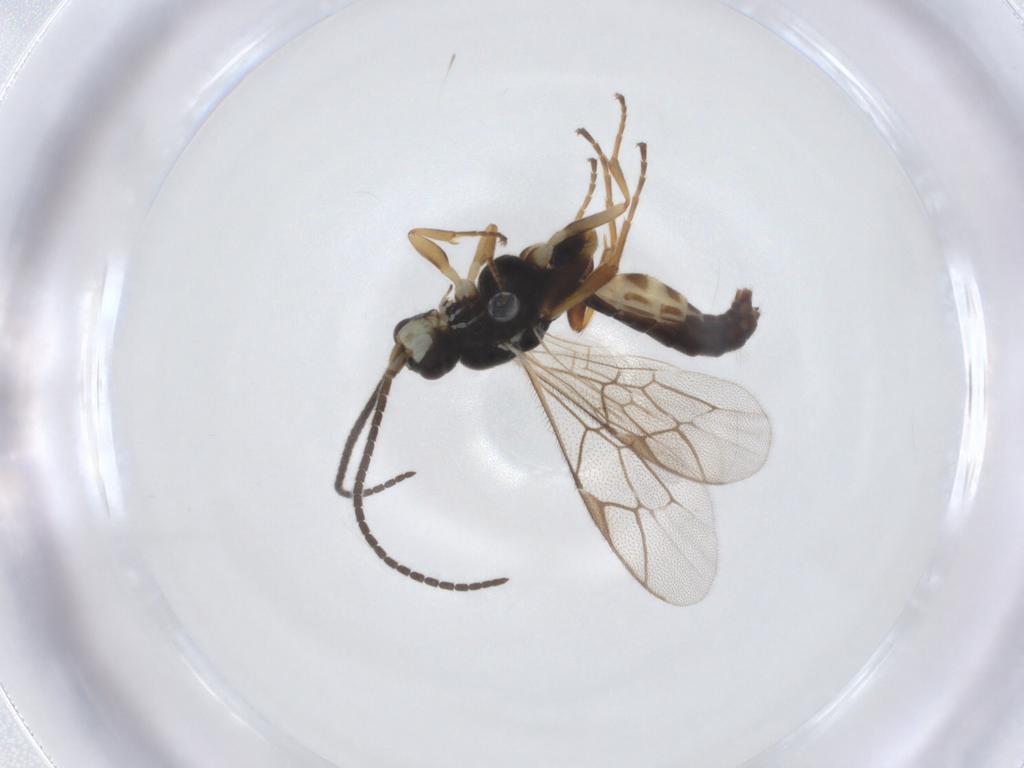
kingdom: Animalia
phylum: Arthropoda
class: Insecta
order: Hymenoptera
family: Ichneumonidae
